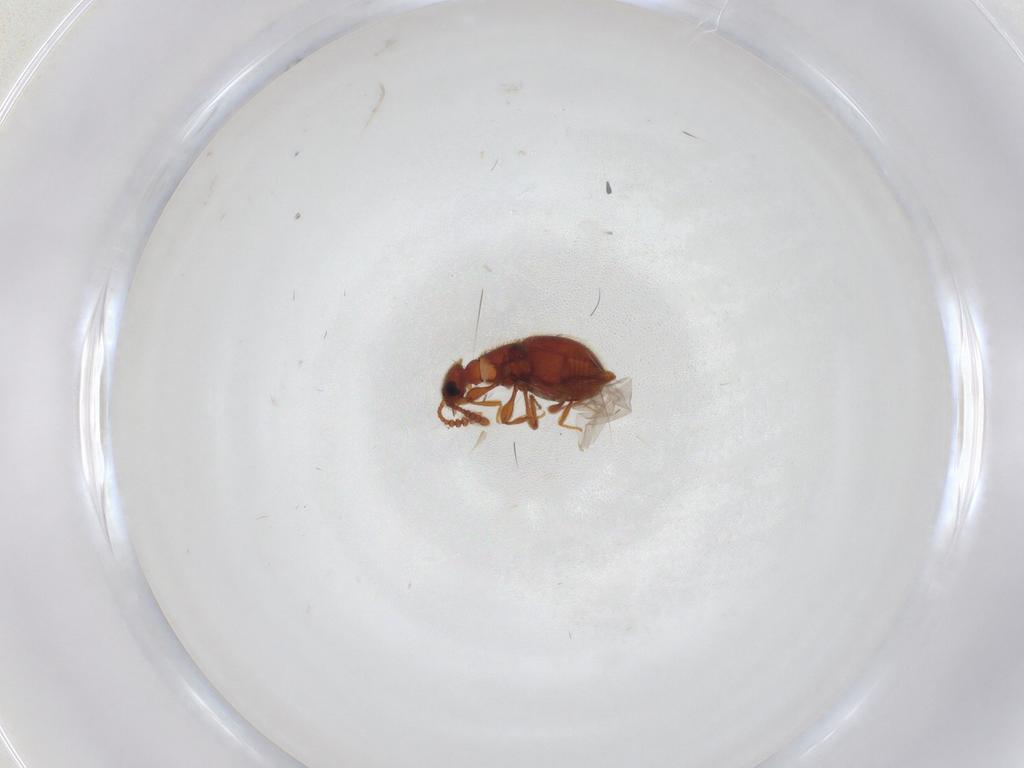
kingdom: Animalia
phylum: Arthropoda
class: Insecta
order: Coleoptera
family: Staphylinidae
